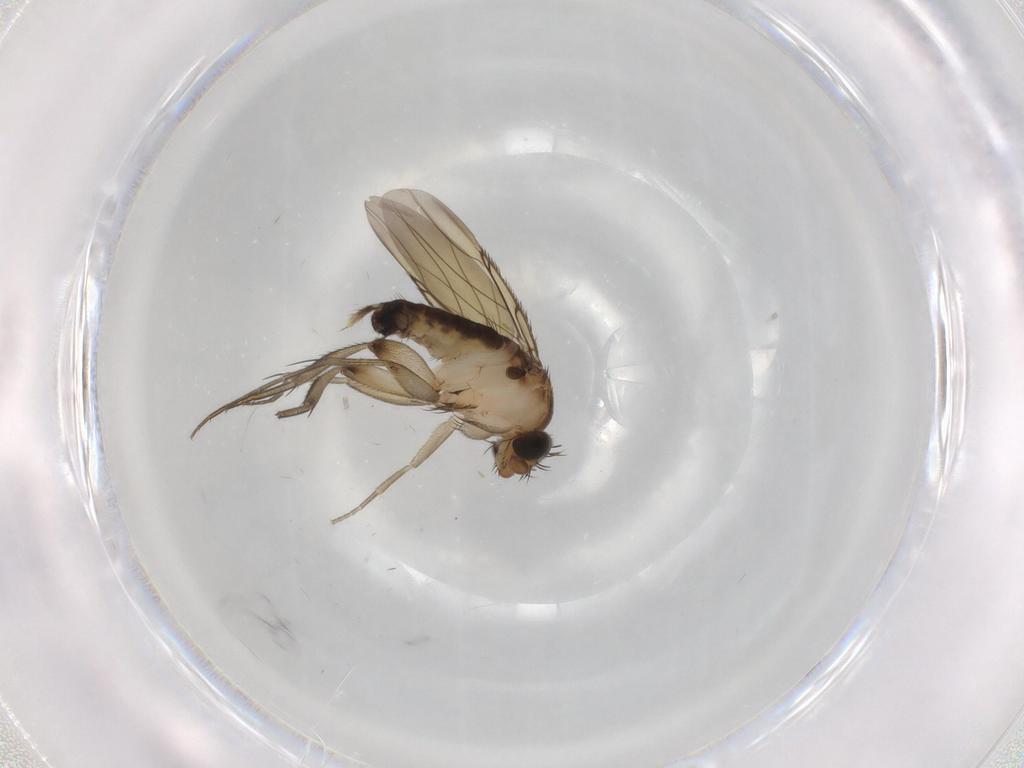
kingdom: Animalia
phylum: Arthropoda
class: Insecta
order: Diptera
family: Phoridae
